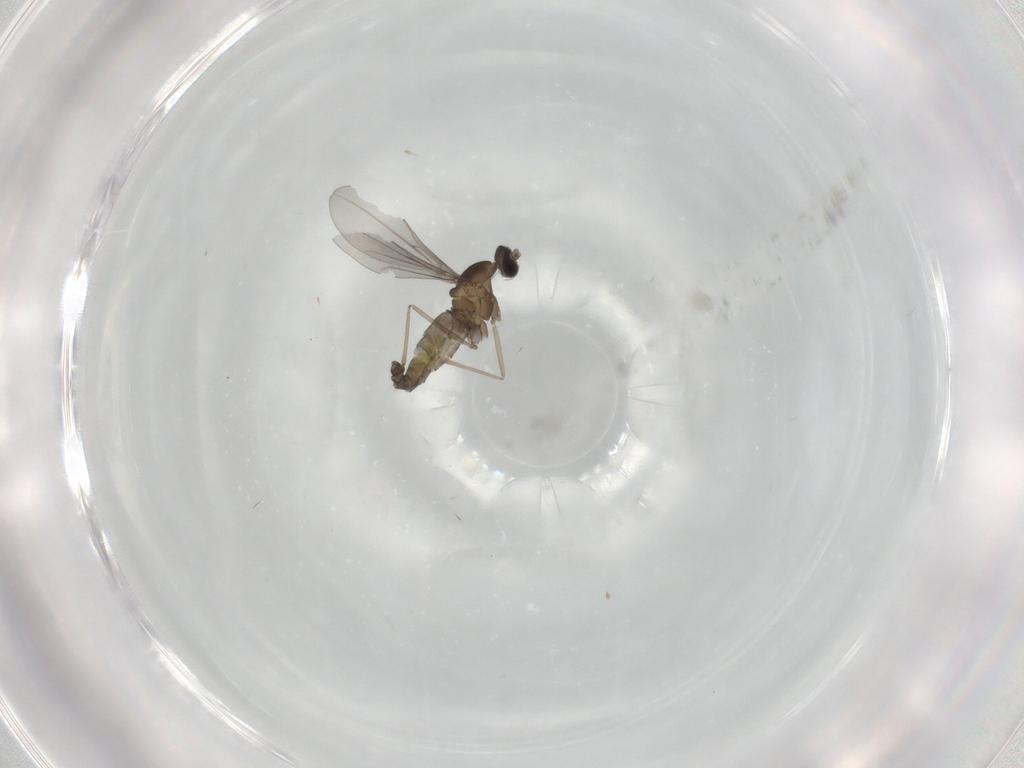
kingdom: Animalia
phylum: Arthropoda
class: Insecta
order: Diptera
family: Cecidomyiidae
